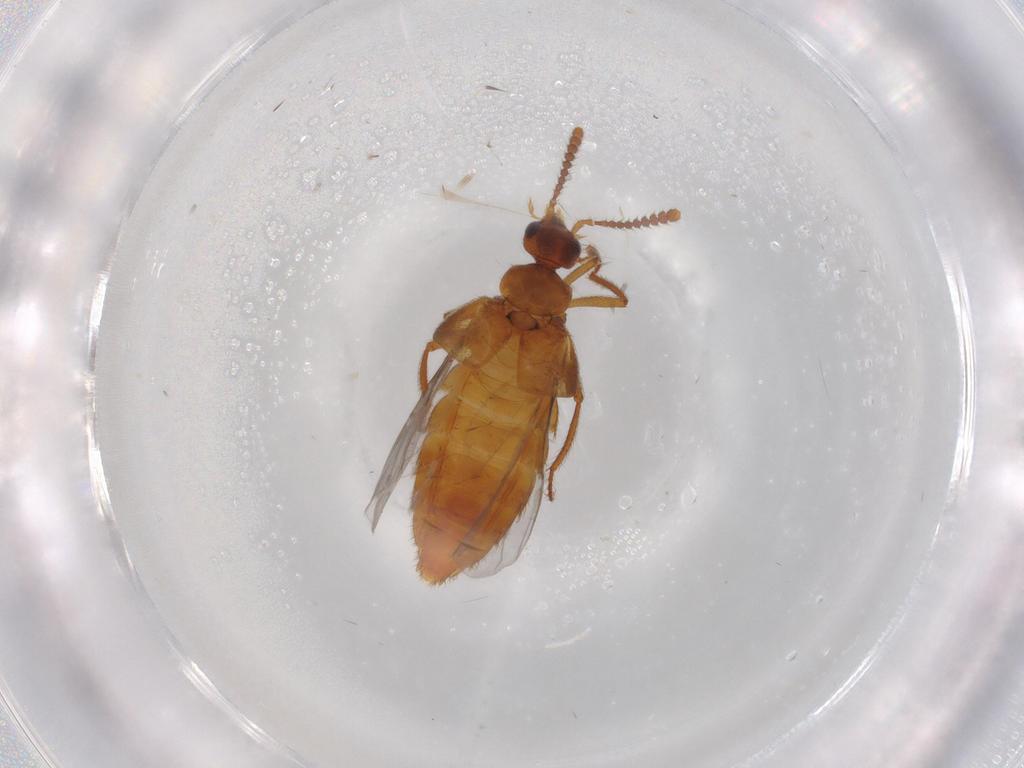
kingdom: Animalia
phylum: Arthropoda
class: Insecta
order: Coleoptera
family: Staphylinidae
